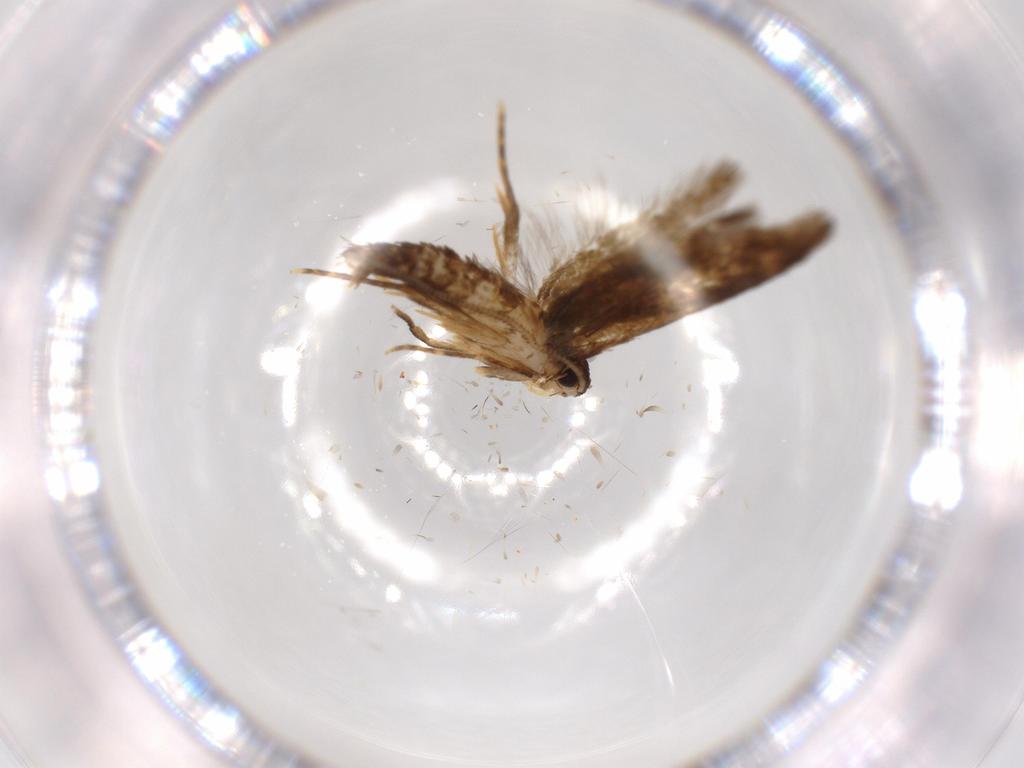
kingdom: Animalia
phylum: Arthropoda
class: Insecta
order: Lepidoptera
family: Tineidae
